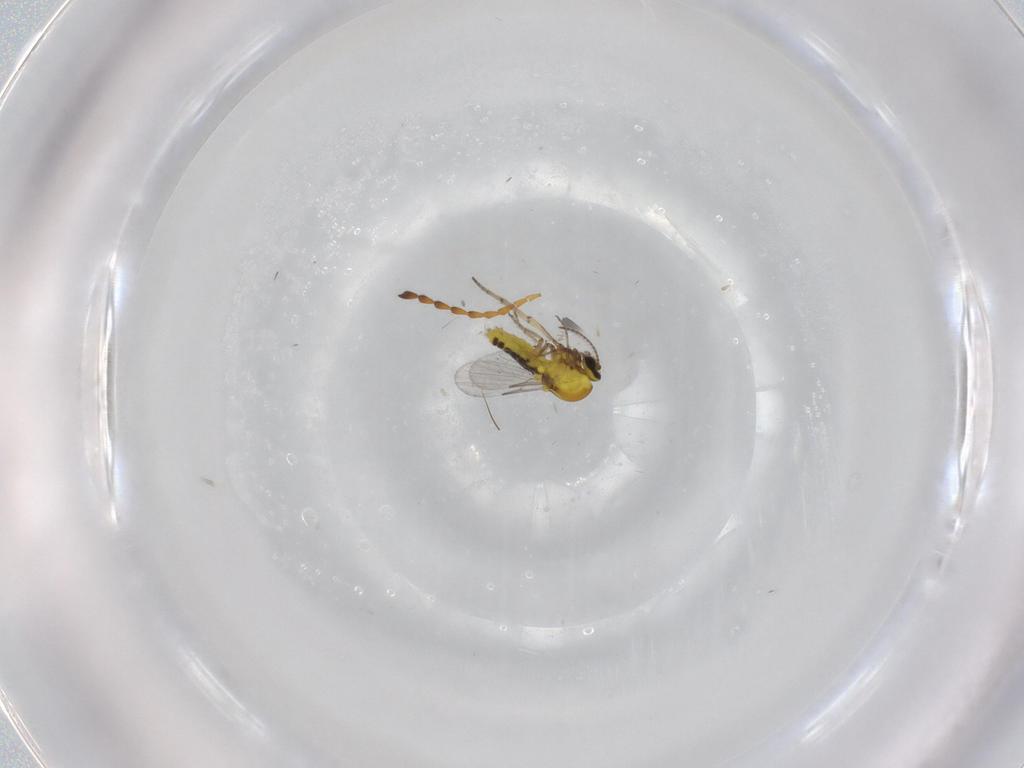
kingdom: Animalia
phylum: Arthropoda
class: Insecta
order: Diptera
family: Ceratopogonidae
